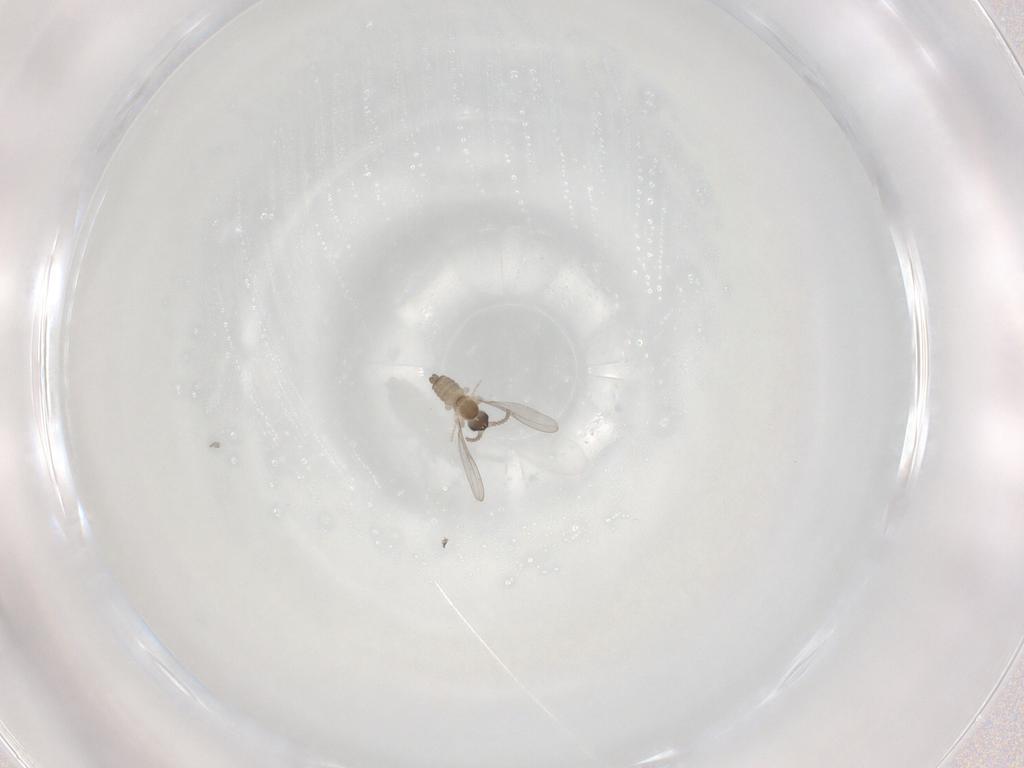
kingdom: Animalia
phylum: Arthropoda
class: Insecta
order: Diptera
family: Cecidomyiidae
